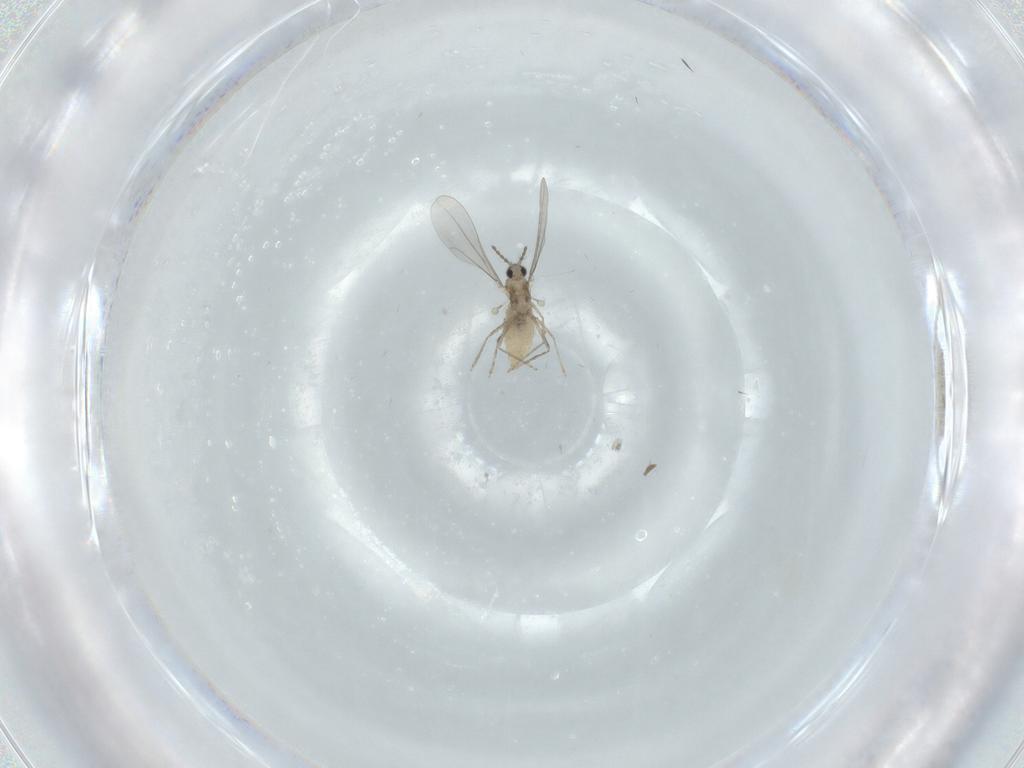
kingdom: Animalia
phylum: Arthropoda
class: Insecta
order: Diptera
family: Cecidomyiidae
